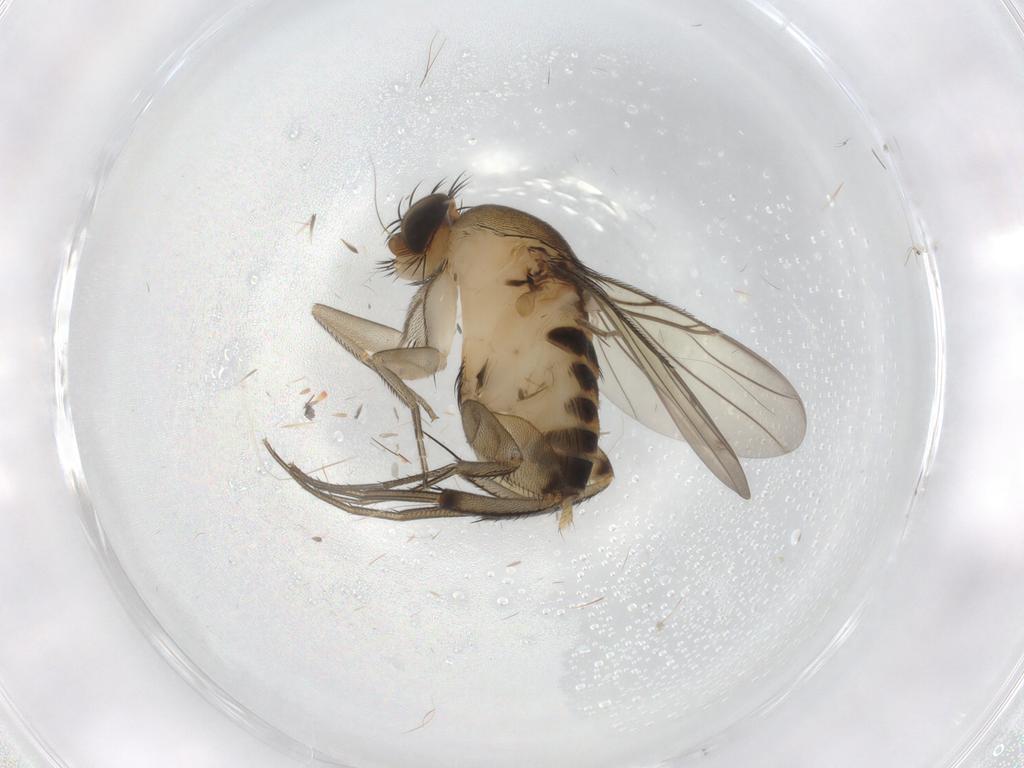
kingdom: Animalia
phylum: Arthropoda
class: Insecta
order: Diptera
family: Phoridae
